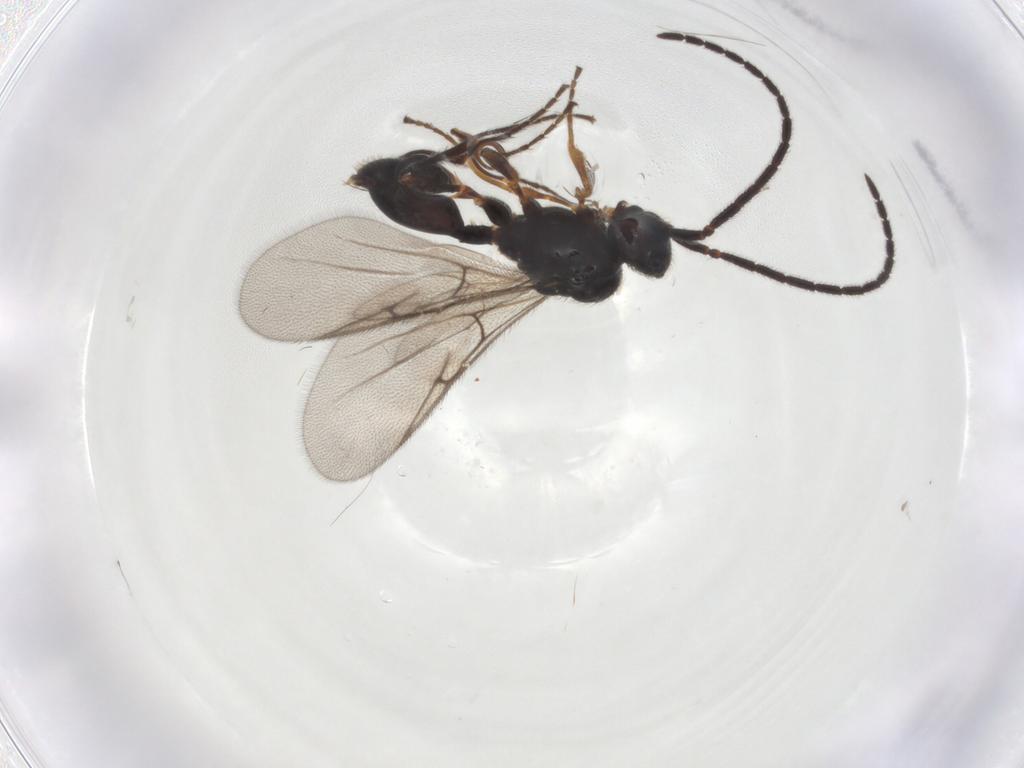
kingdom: Animalia
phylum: Arthropoda
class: Insecta
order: Hymenoptera
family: Diapriidae
